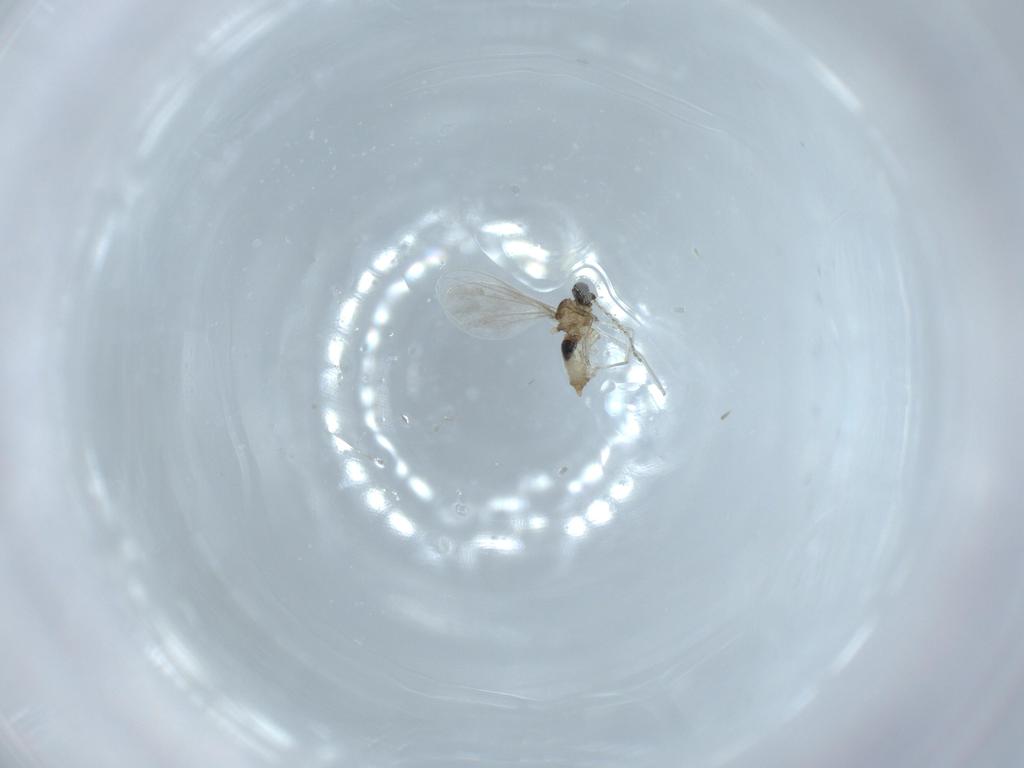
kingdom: Animalia
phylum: Arthropoda
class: Insecta
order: Diptera
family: Cecidomyiidae
